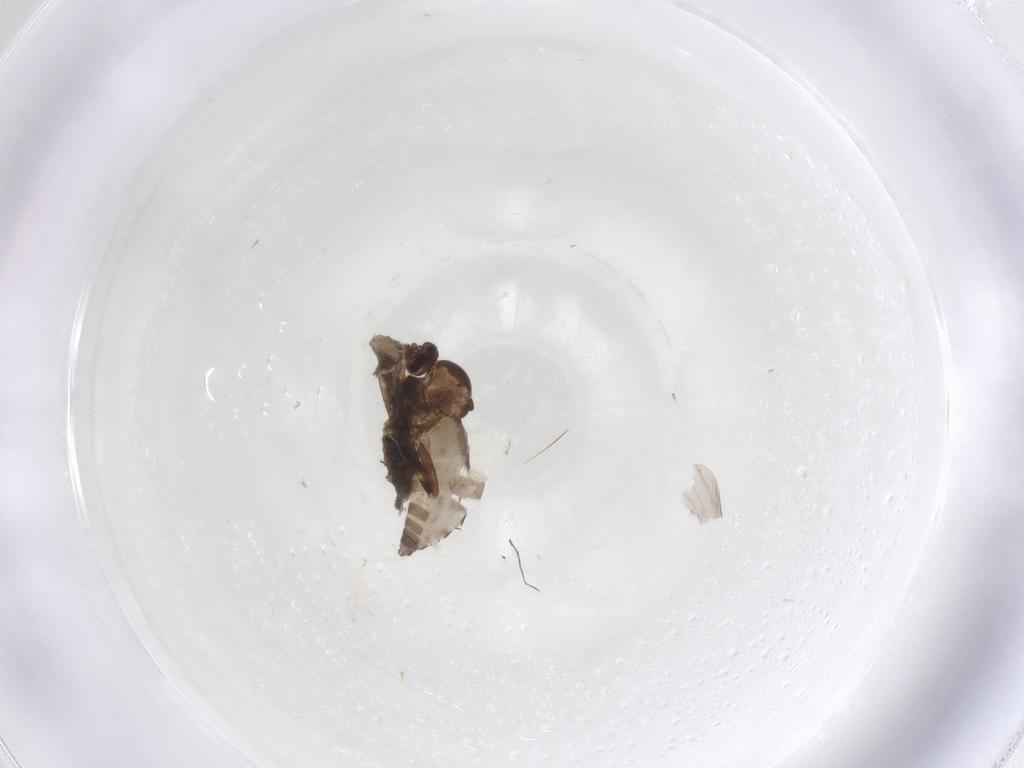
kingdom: Animalia
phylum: Arthropoda
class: Insecta
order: Diptera
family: Cecidomyiidae
